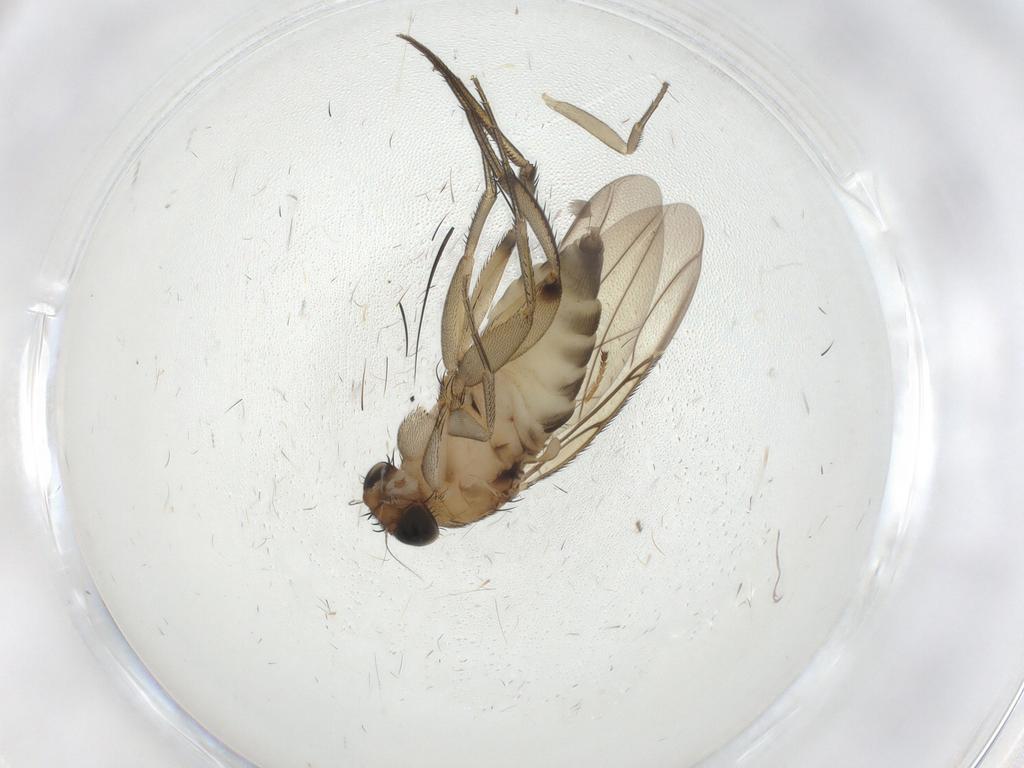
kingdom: Animalia
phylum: Arthropoda
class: Insecta
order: Diptera
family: Phoridae
